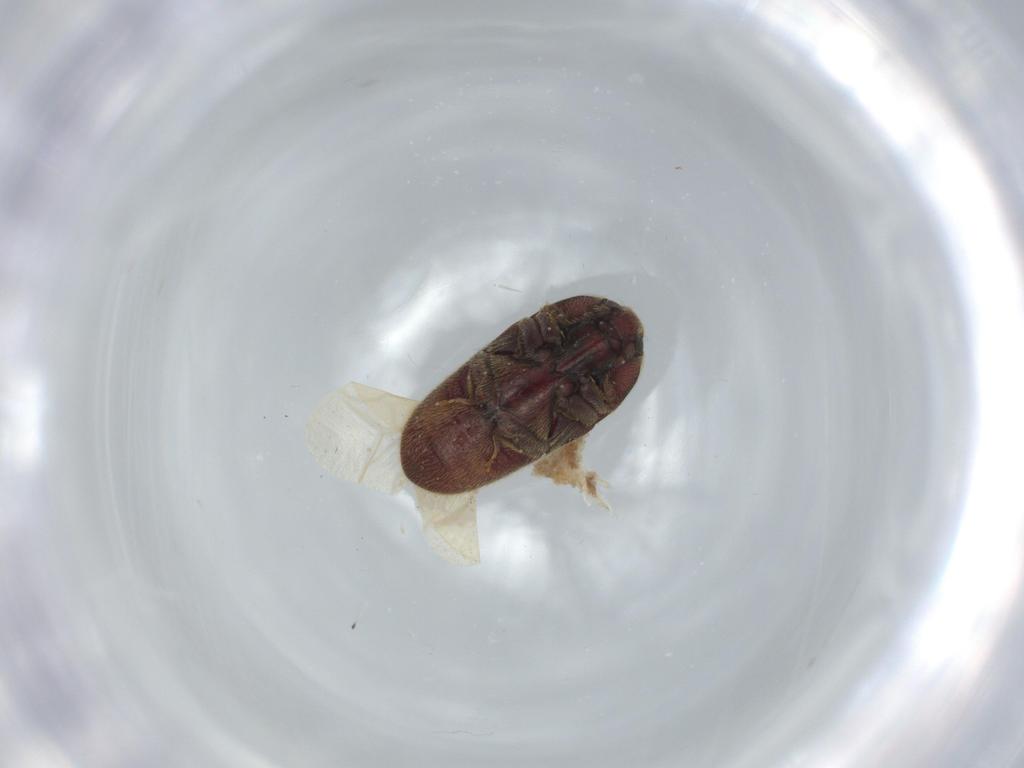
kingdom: Animalia
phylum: Arthropoda
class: Insecta
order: Coleoptera
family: Throscidae
